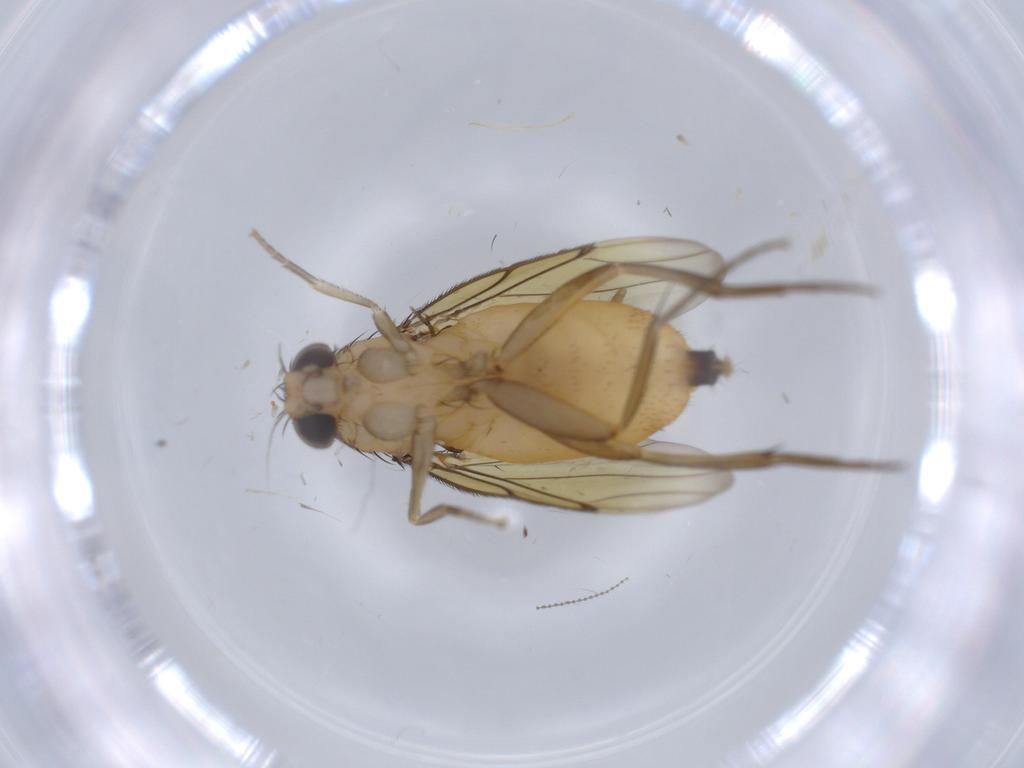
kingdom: Animalia
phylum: Arthropoda
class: Insecta
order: Diptera
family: Cecidomyiidae
